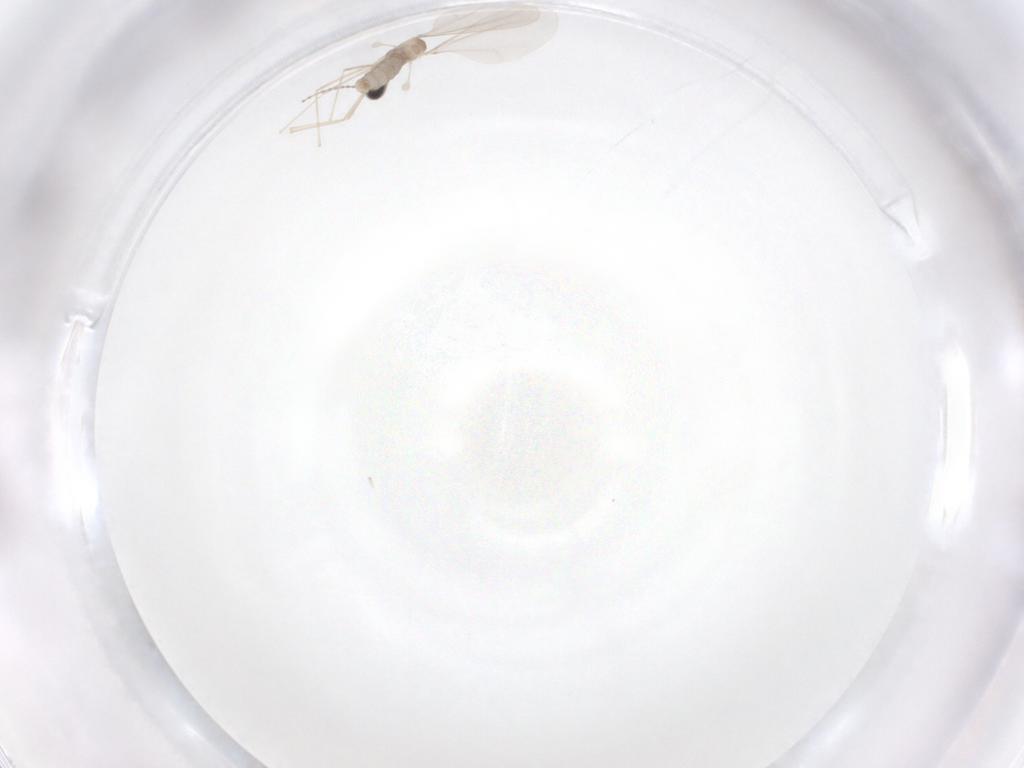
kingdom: Animalia
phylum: Arthropoda
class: Insecta
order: Diptera
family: Cecidomyiidae
